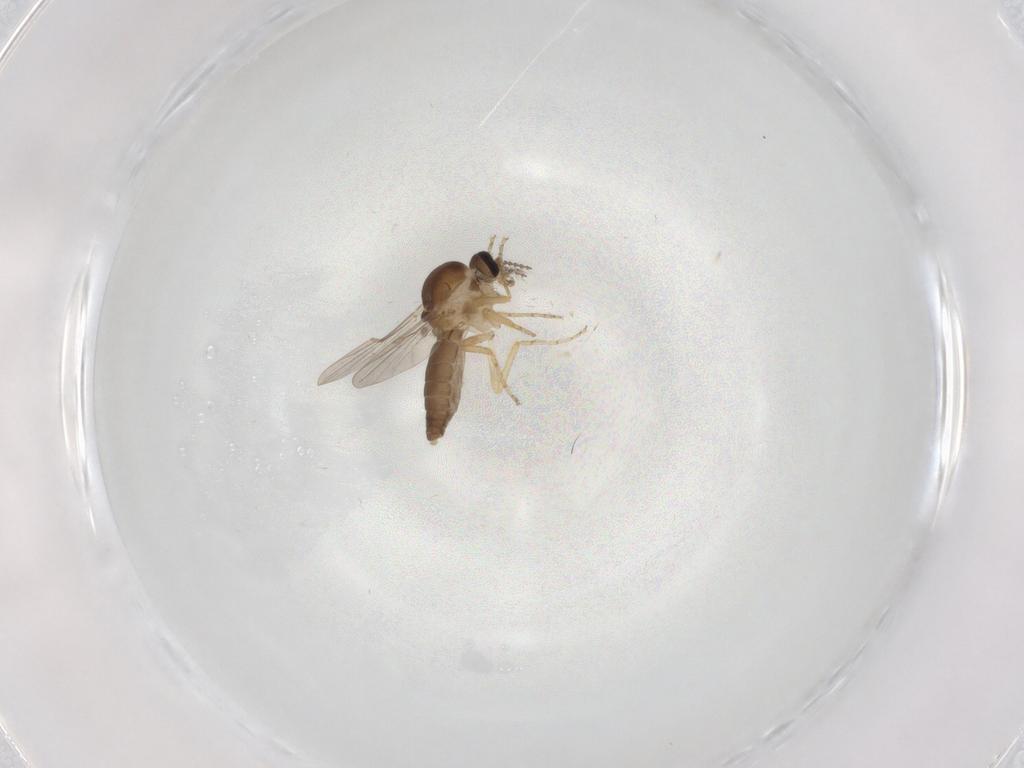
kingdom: Animalia
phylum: Arthropoda
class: Insecta
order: Diptera
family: Ceratopogonidae
